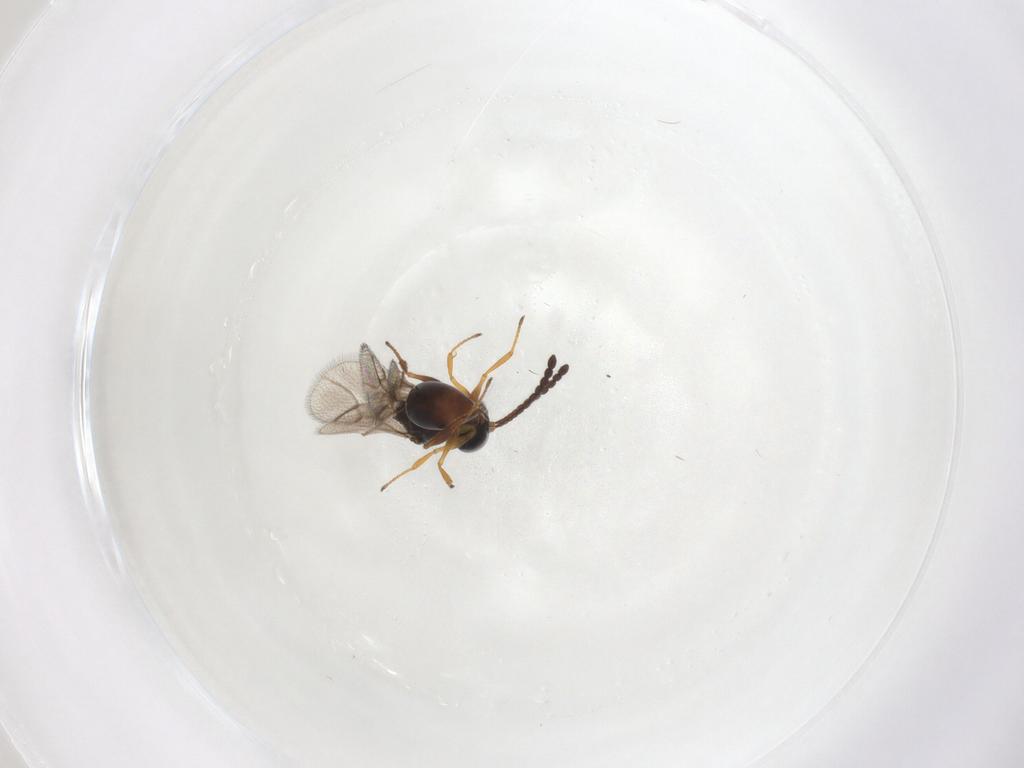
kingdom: Animalia
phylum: Arthropoda
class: Insecta
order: Hymenoptera
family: Figitidae
